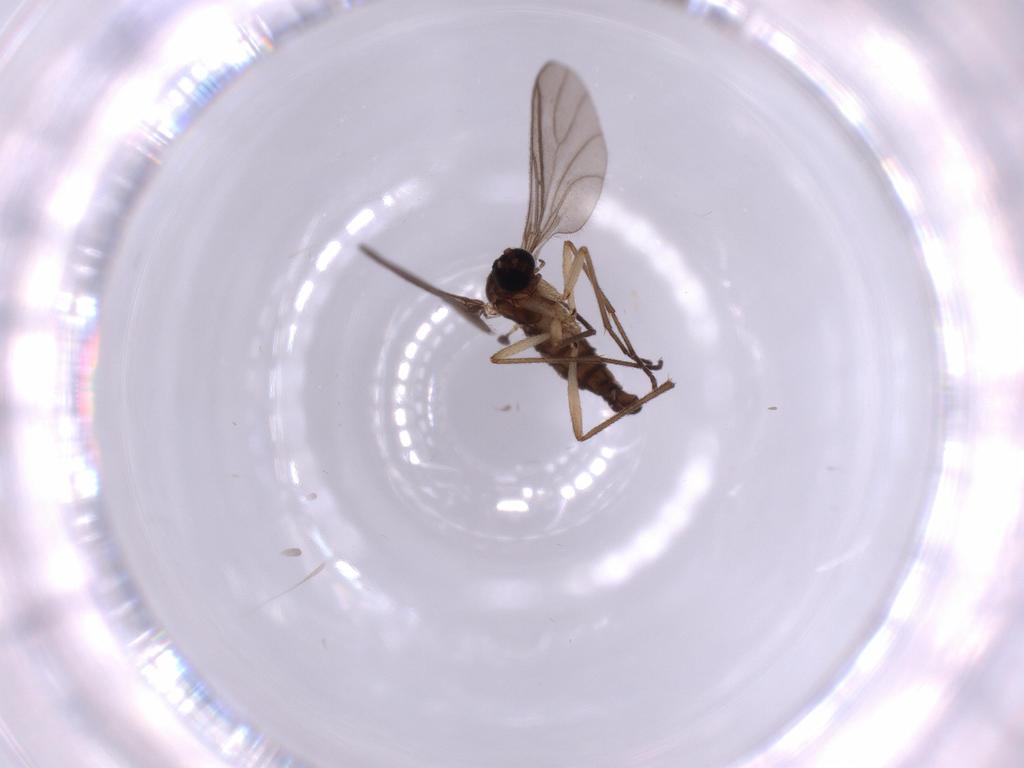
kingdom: Animalia
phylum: Arthropoda
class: Insecta
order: Diptera
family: Sciaridae
